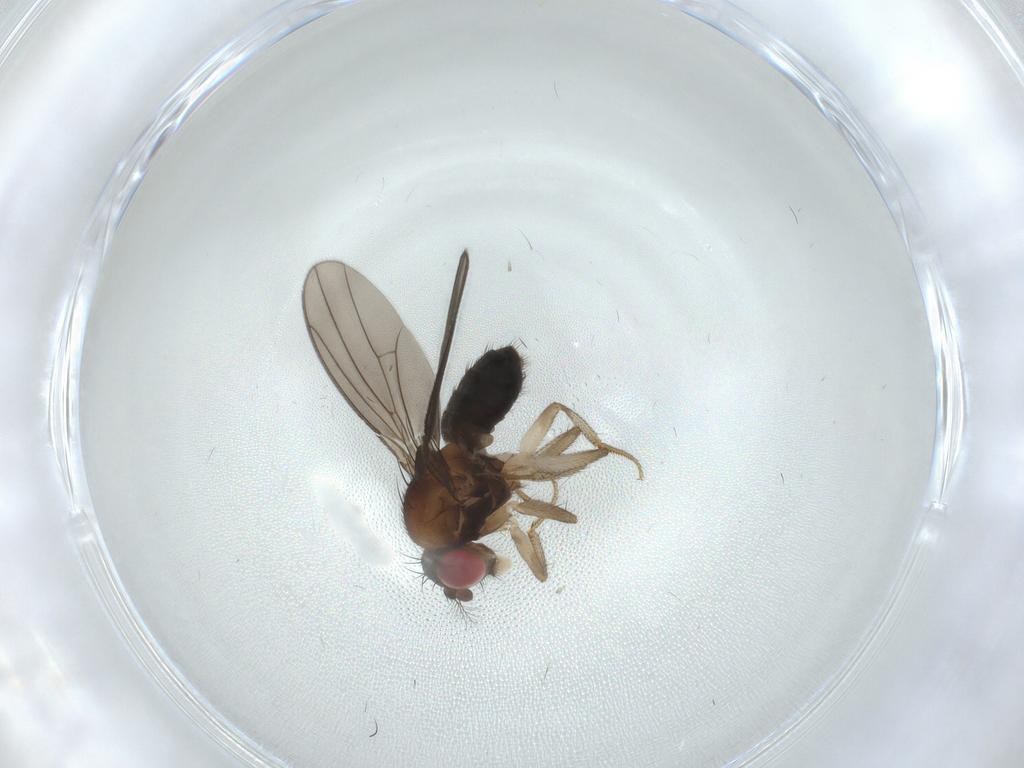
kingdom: Animalia
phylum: Arthropoda
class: Insecta
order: Diptera
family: Drosophilidae
